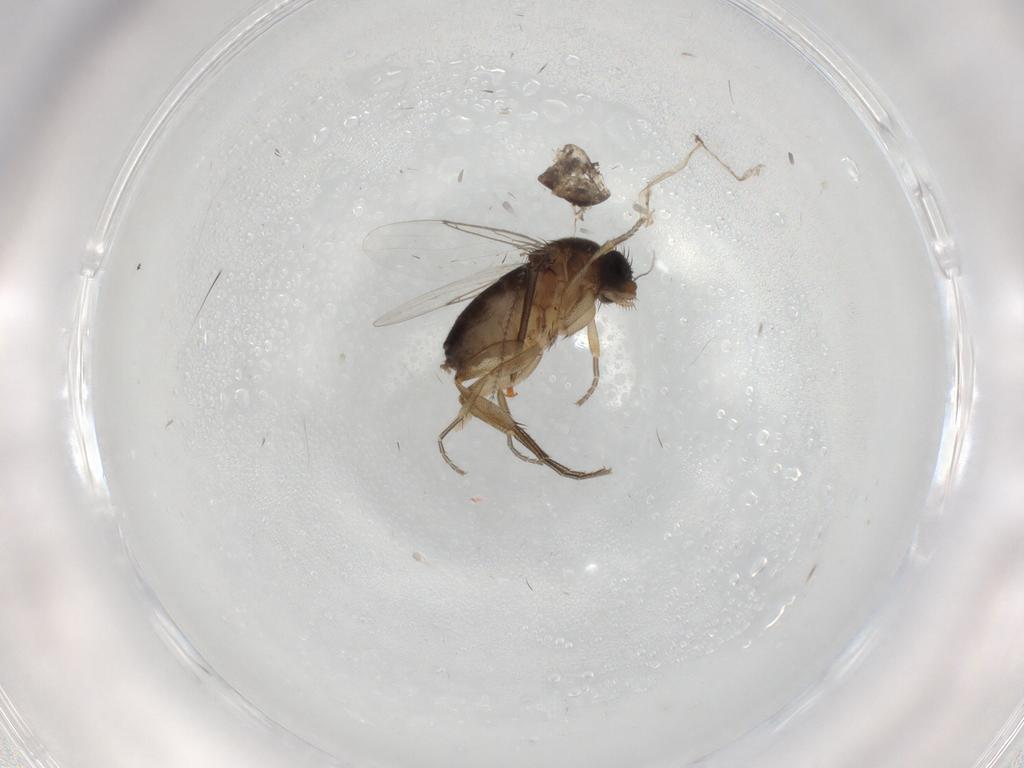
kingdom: Animalia
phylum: Arthropoda
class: Insecta
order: Diptera
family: Phoridae
